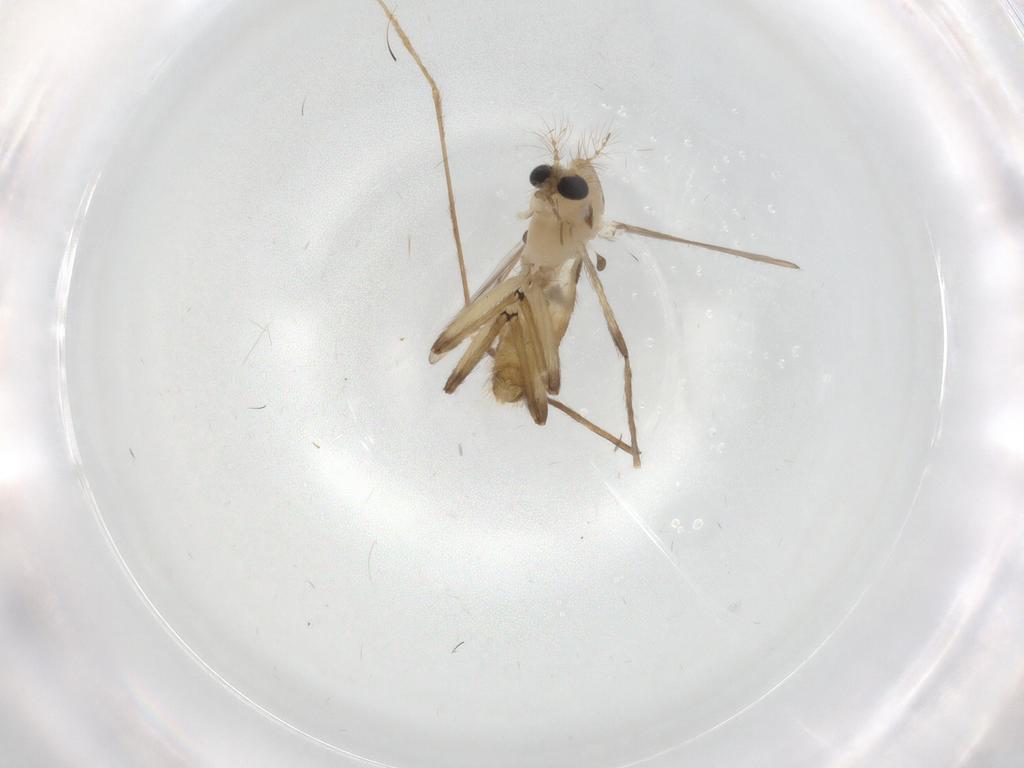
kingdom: Animalia
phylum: Arthropoda
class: Insecta
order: Diptera
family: Chironomidae
